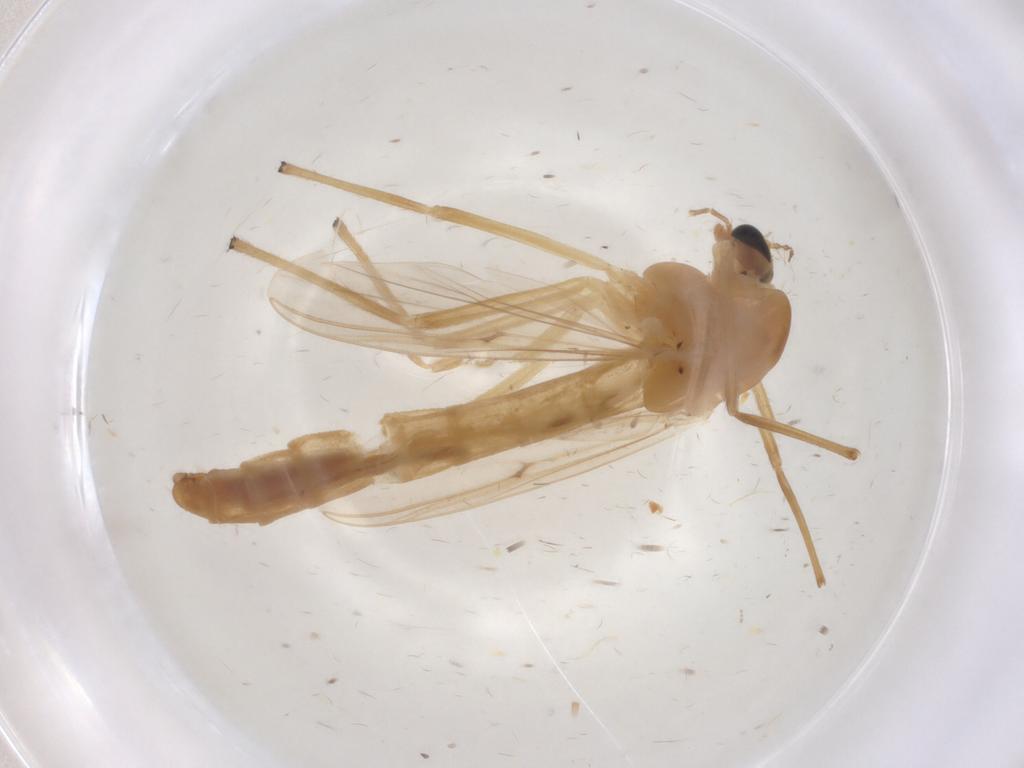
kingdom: Animalia
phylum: Arthropoda
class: Insecta
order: Diptera
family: Chironomidae
